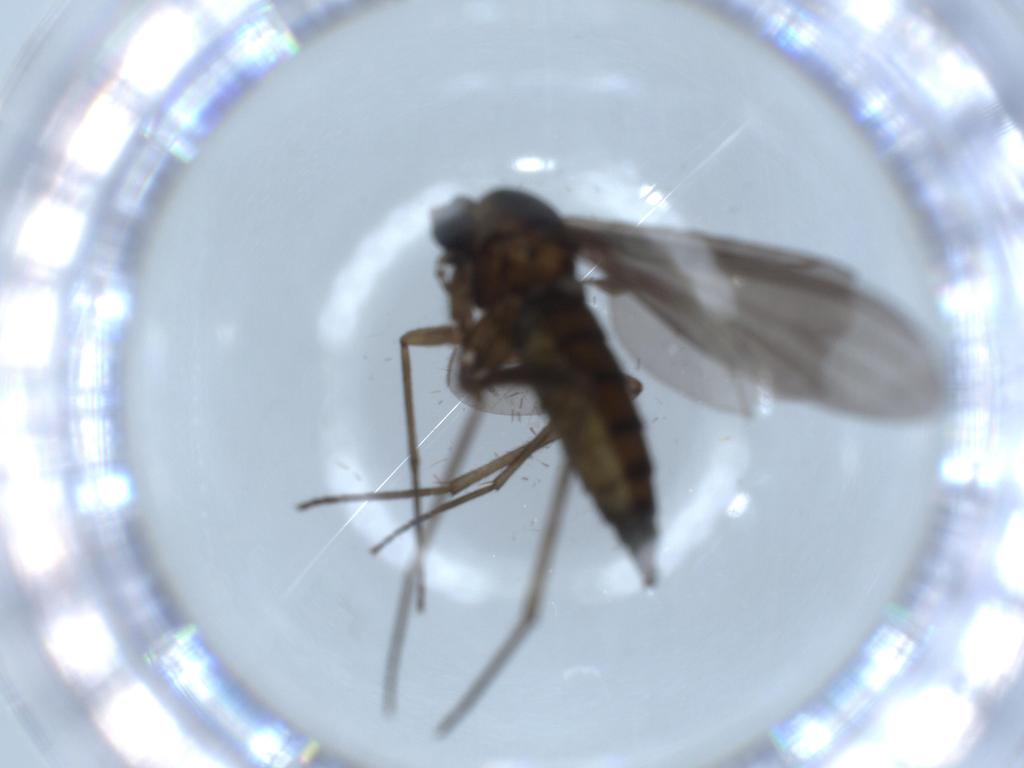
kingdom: Animalia
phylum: Arthropoda
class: Insecta
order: Diptera
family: Sciaridae
